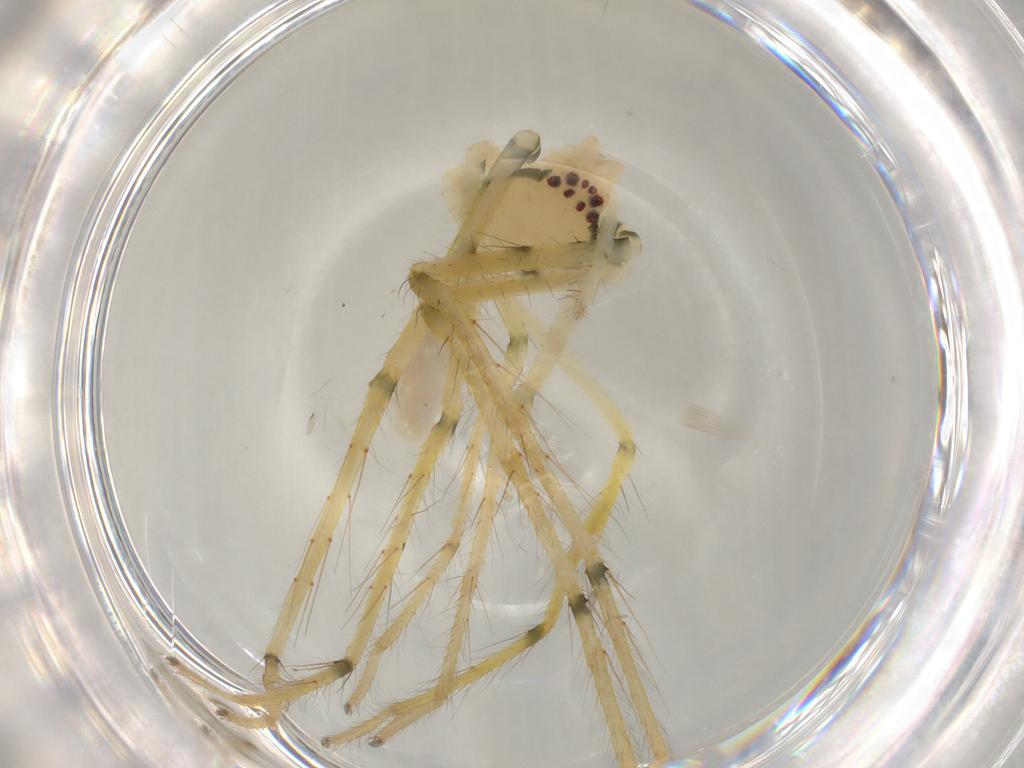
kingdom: Animalia
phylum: Arthropoda
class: Arachnida
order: Araneae
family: Sparassidae
